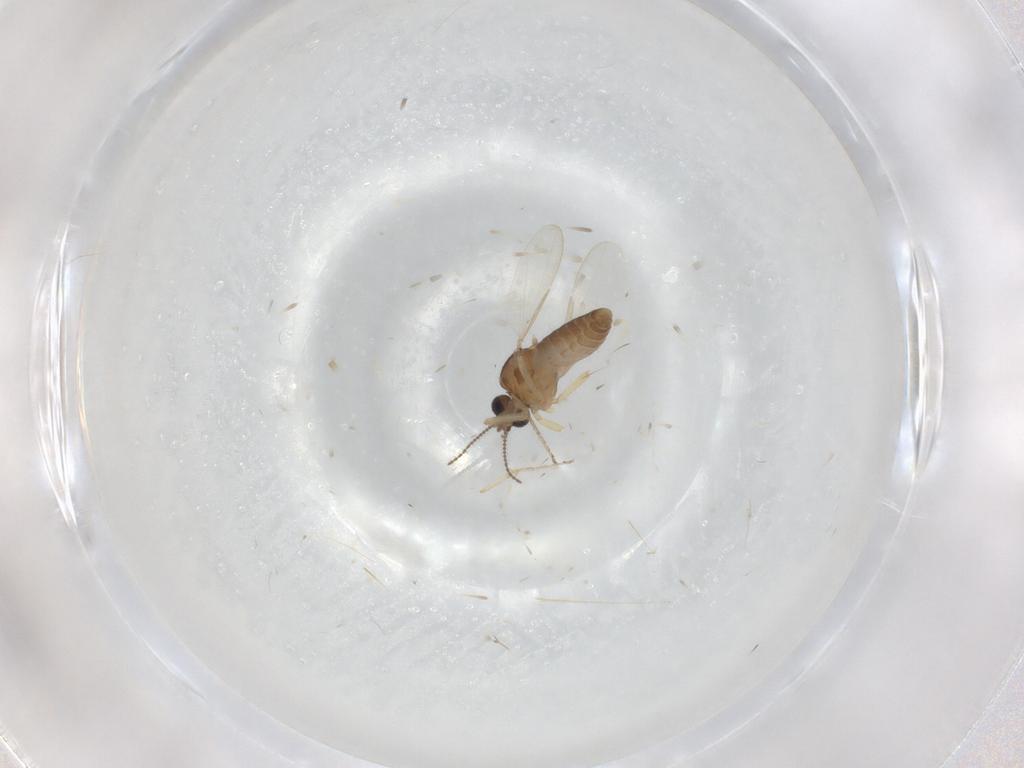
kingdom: Animalia
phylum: Arthropoda
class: Insecta
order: Diptera
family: Ceratopogonidae
